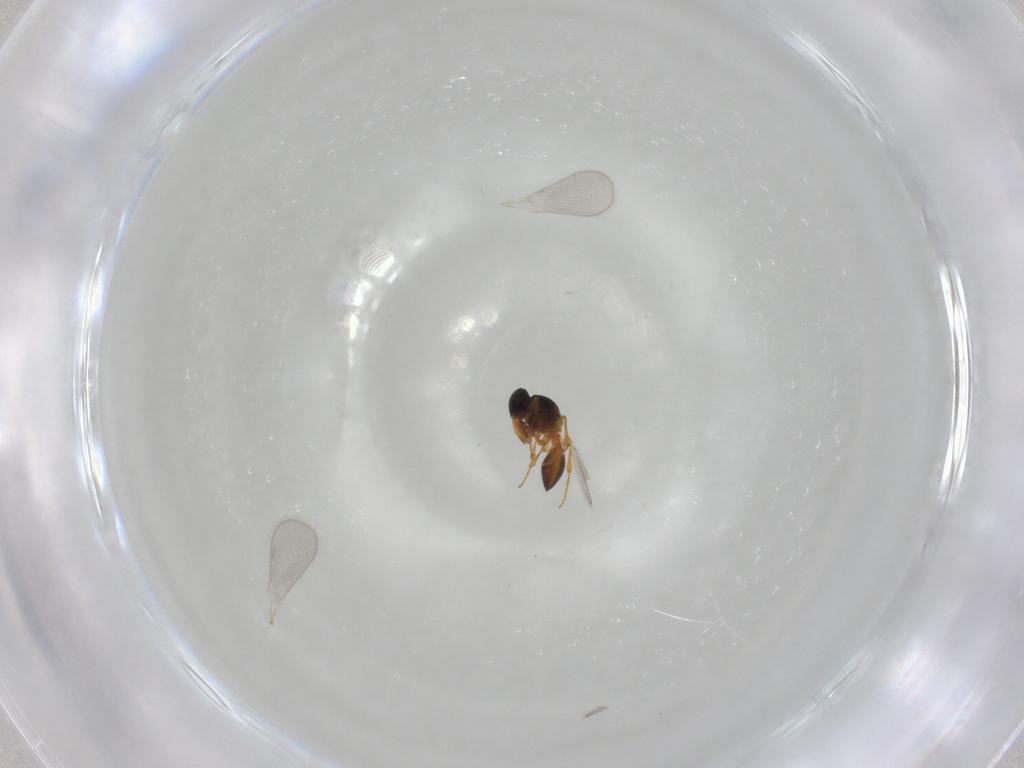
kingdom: Animalia
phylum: Arthropoda
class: Insecta
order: Hymenoptera
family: Platygastridae
